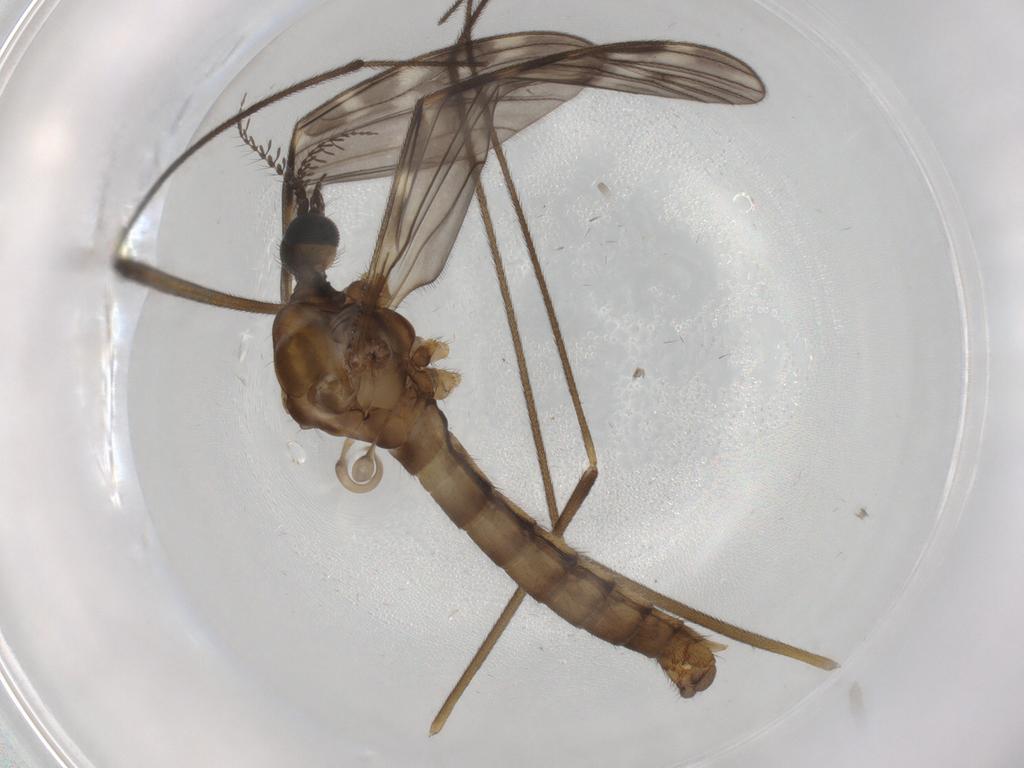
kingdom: Animalia
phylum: Arthropoda
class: Insecta
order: Diptera
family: Limoniidae
